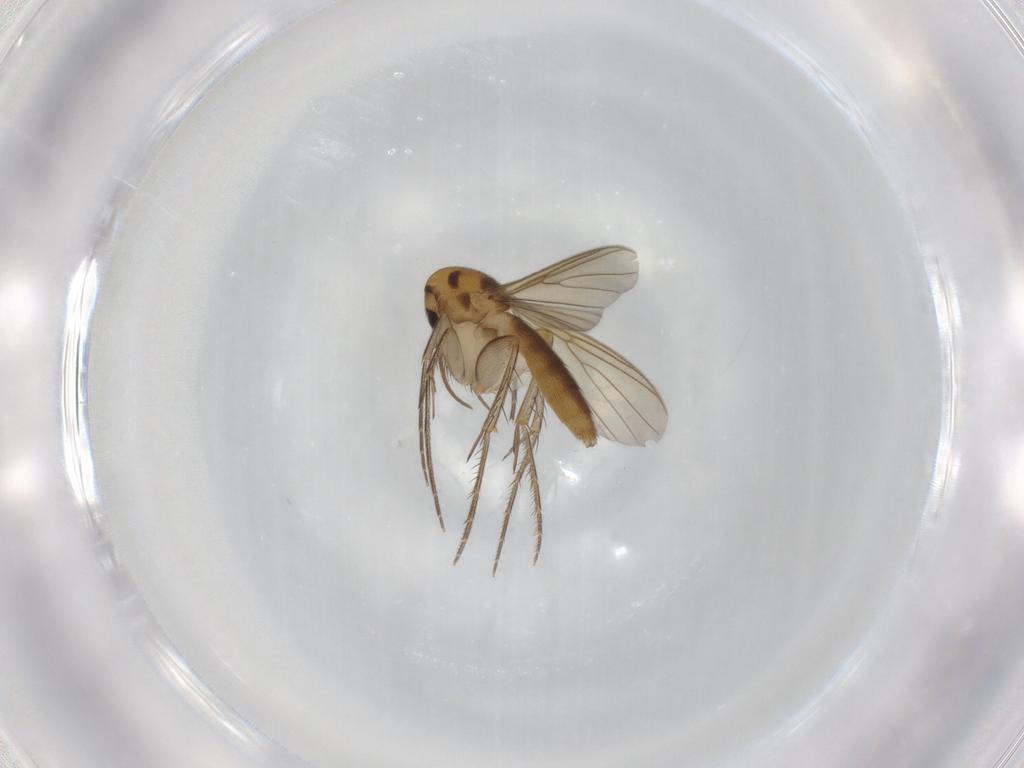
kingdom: Animalia
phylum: Arthropoda
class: Insecta
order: Diptera
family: Mycetophilidae
